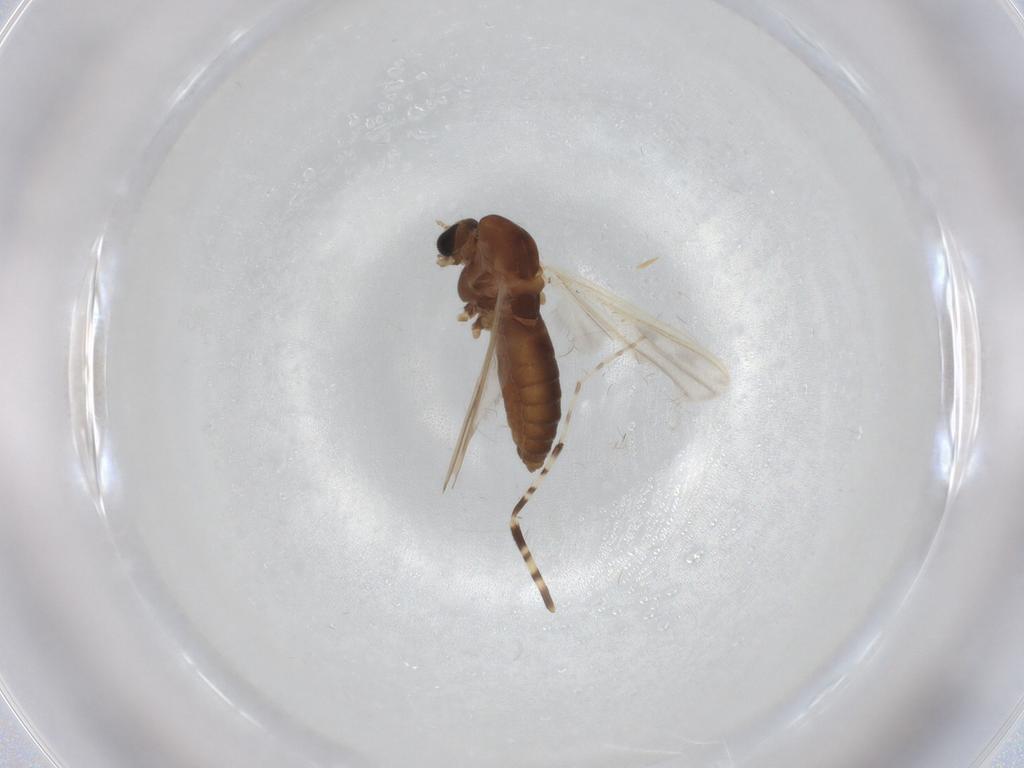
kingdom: Animalia
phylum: Arthropoda
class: Insecta
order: Diptera
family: Chironomidae
